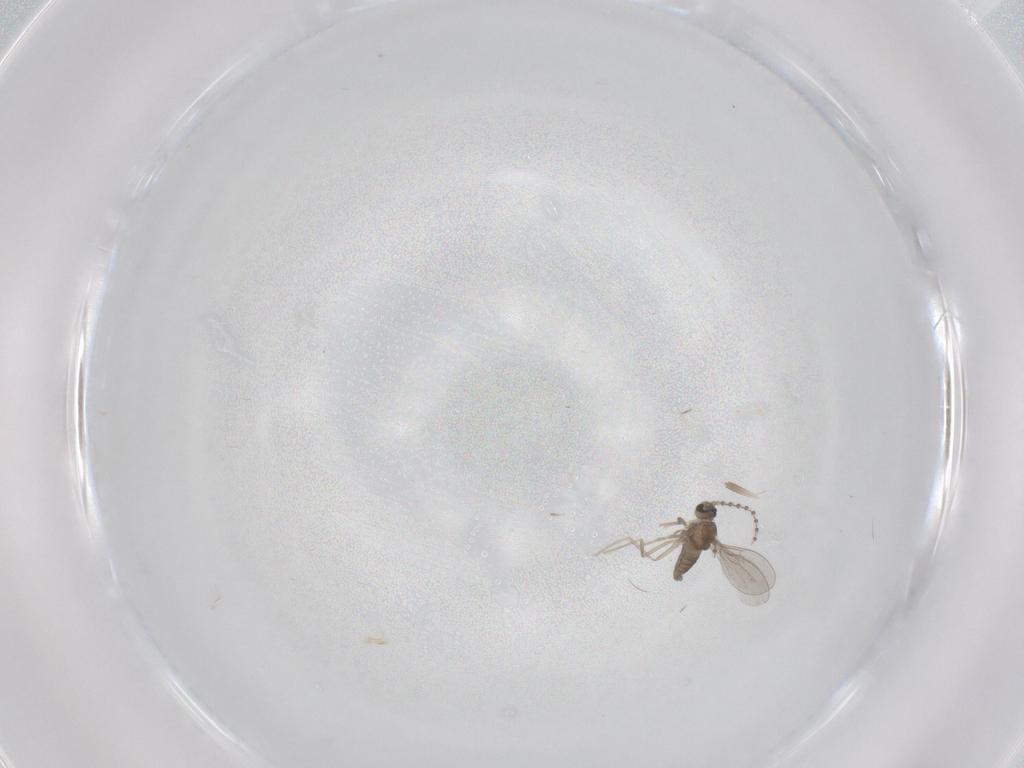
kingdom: Animalia
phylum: Arthropoda
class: Insecta
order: Diptera
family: Cecidomyiidae
